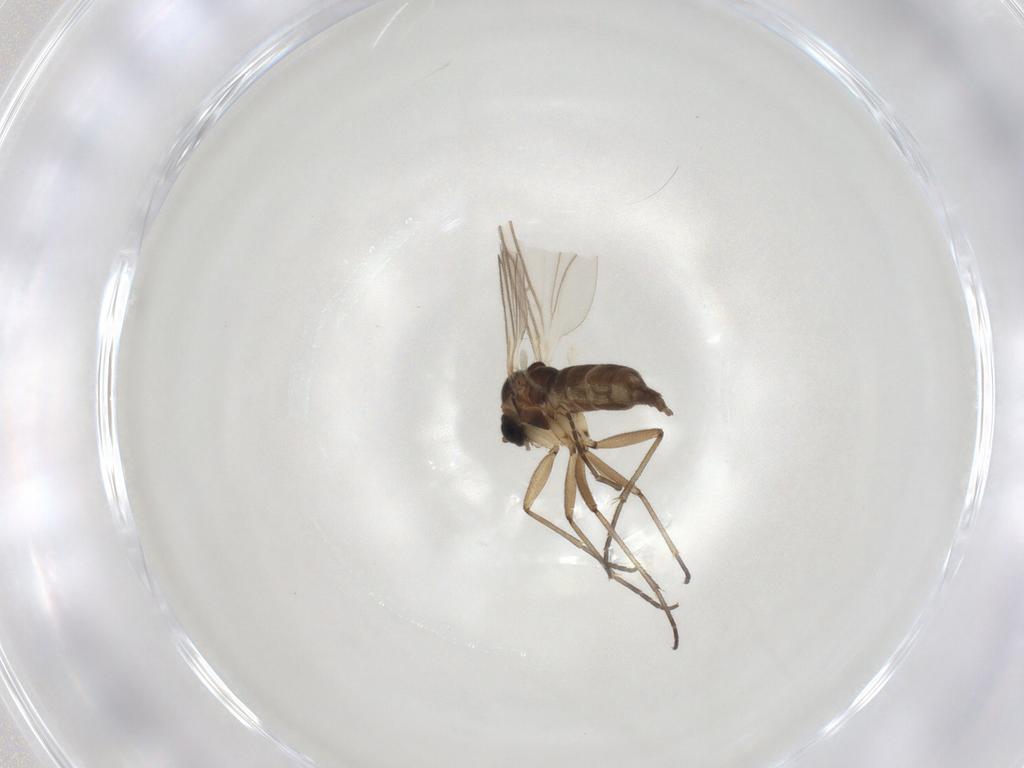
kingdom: Animalia
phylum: Arthropoda
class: Insecta
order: Diptera
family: Cecidomyiidae
